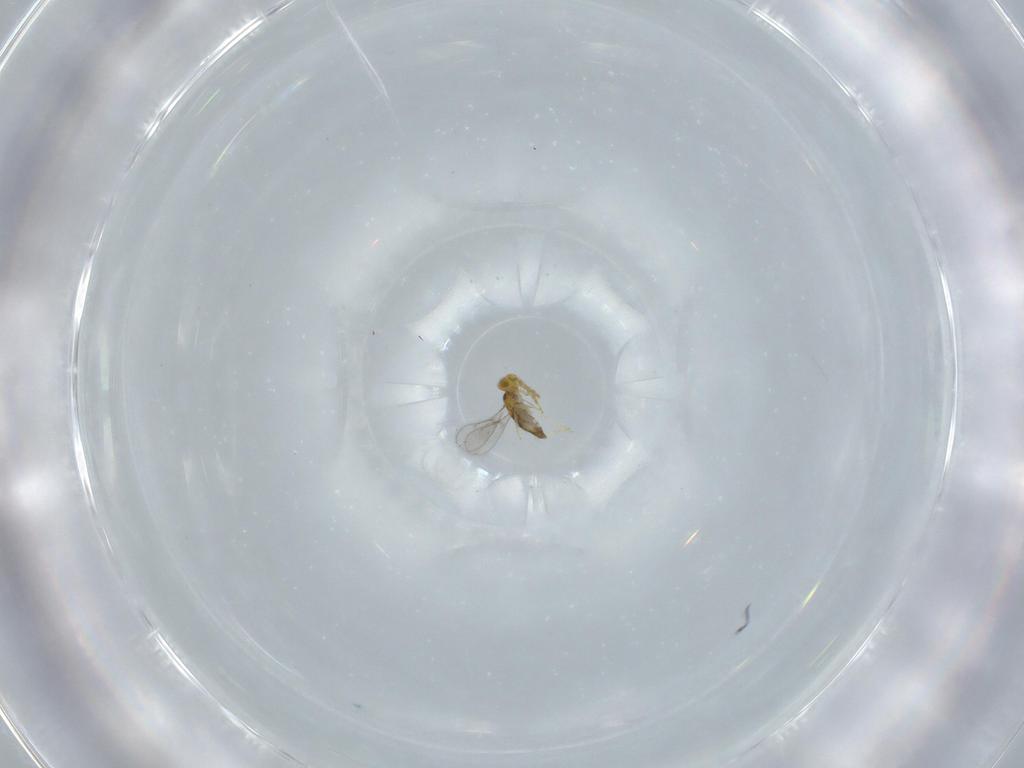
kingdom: Animalia
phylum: Arthropoda
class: Insecta
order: Hymenoptera
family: Aphelinidae
